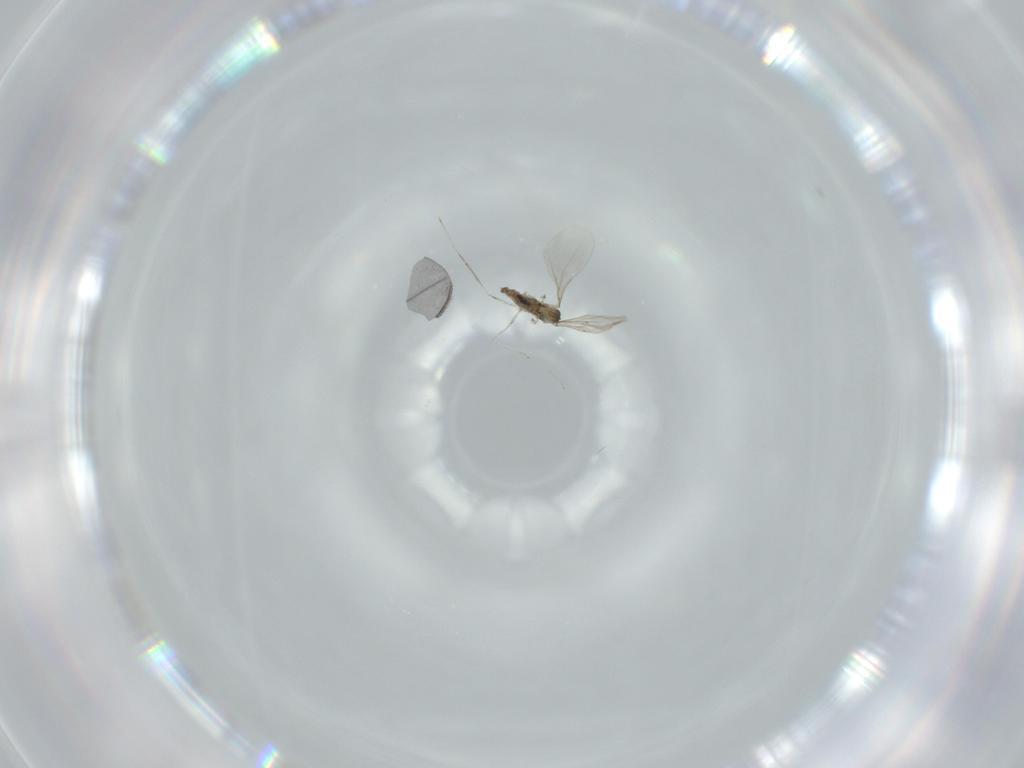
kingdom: Animalia
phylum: Arthropoda
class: Insecta
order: Diptera
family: Cecidomyiidae
